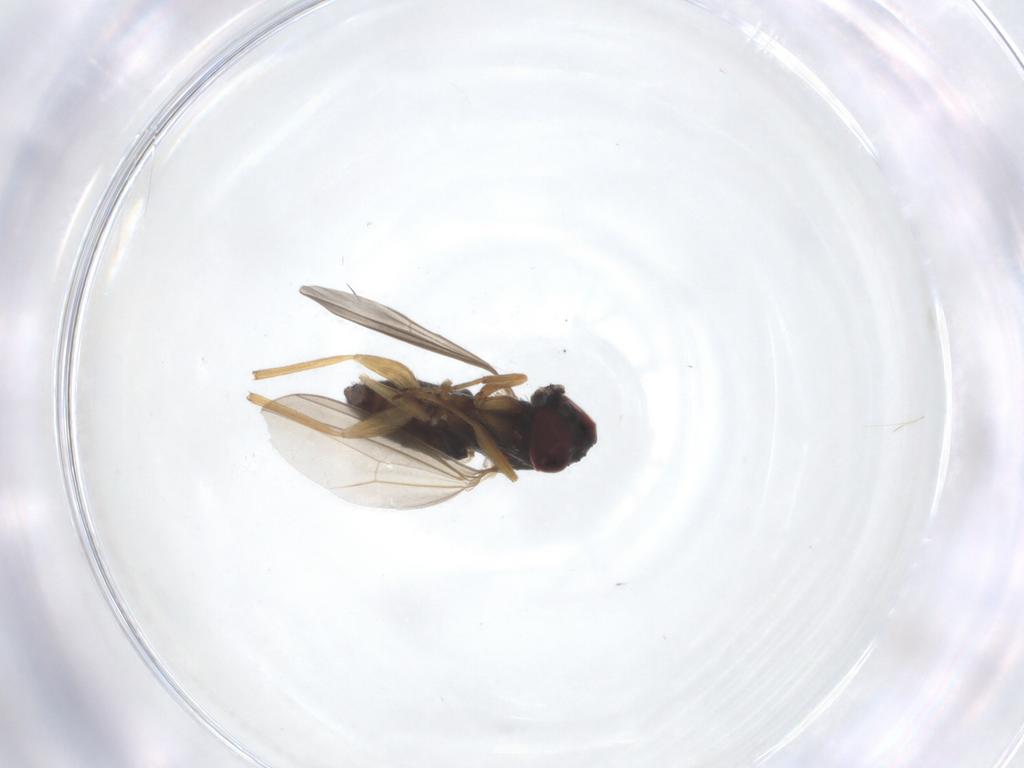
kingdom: Animalia
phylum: Arthropoda
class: Insecta
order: Diptera
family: Dolichopodidae
